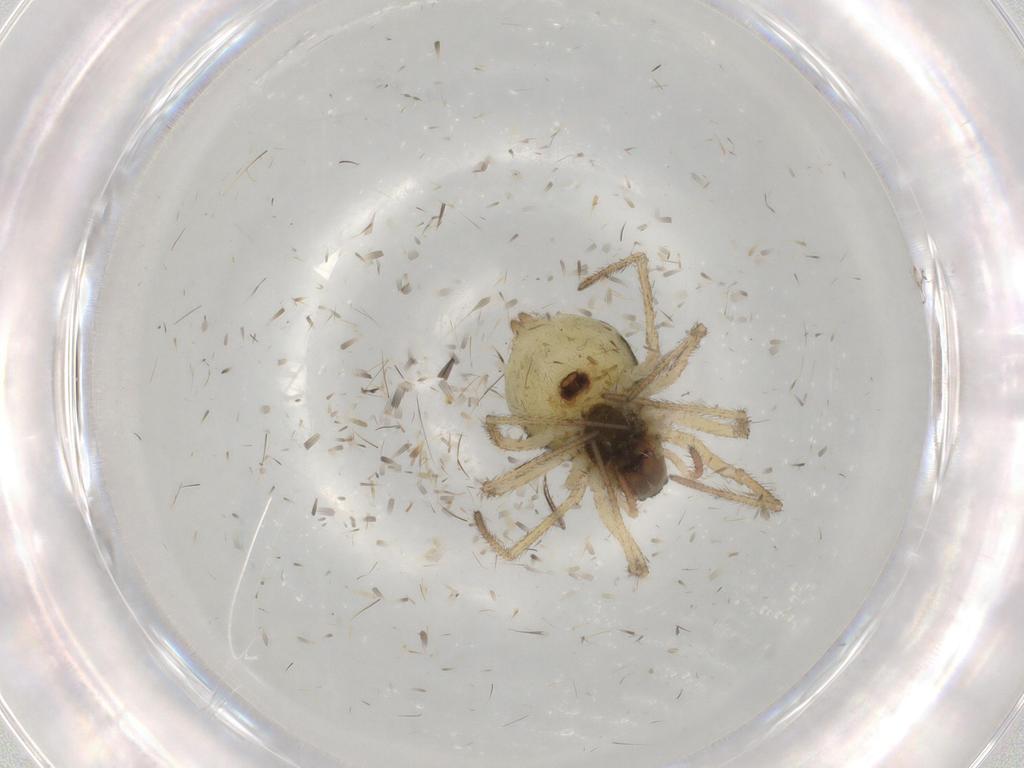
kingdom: Animalia
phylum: Arthropoda
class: Arachnida
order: Araneae
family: Linyphiidae
